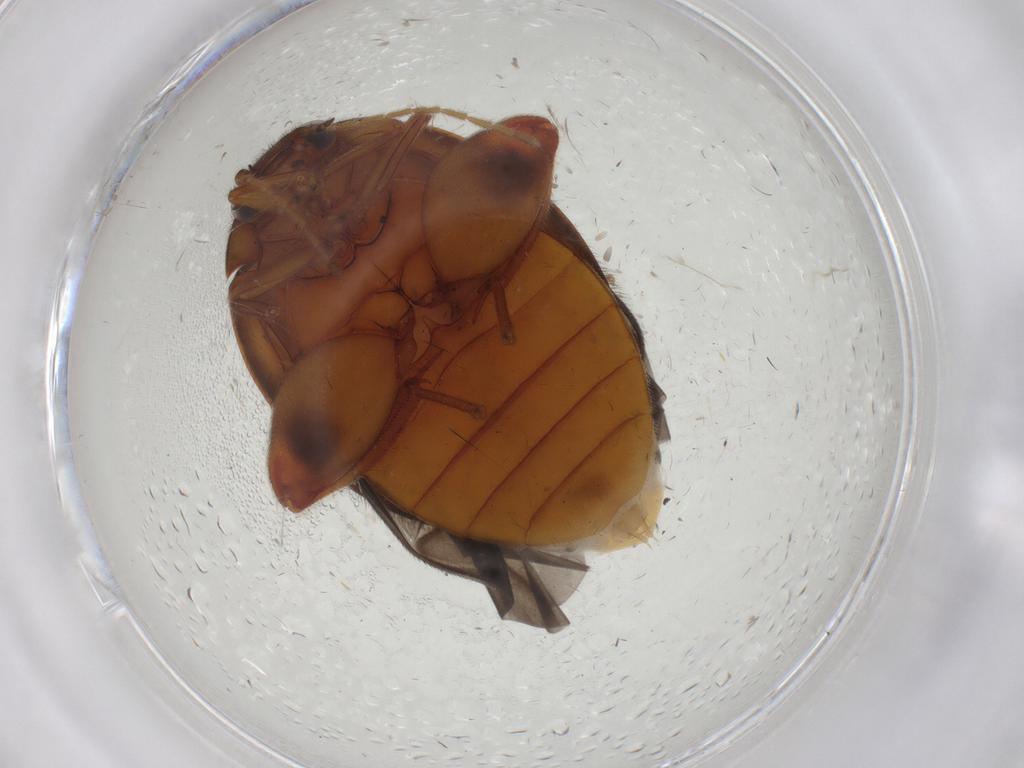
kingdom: Animalia
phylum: Arthropoda
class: Insecta
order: Coleoptera
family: Scirtidae
